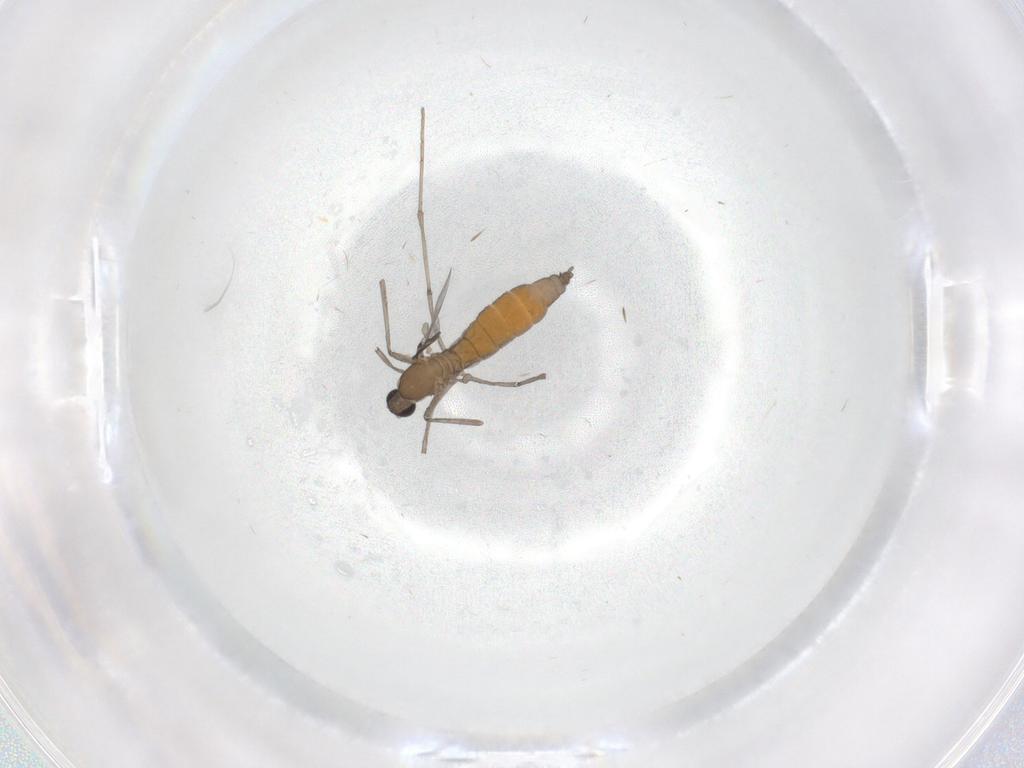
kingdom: Animalia
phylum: Arthropoda
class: Insecta
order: Diptera
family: Cecidomyiidae
